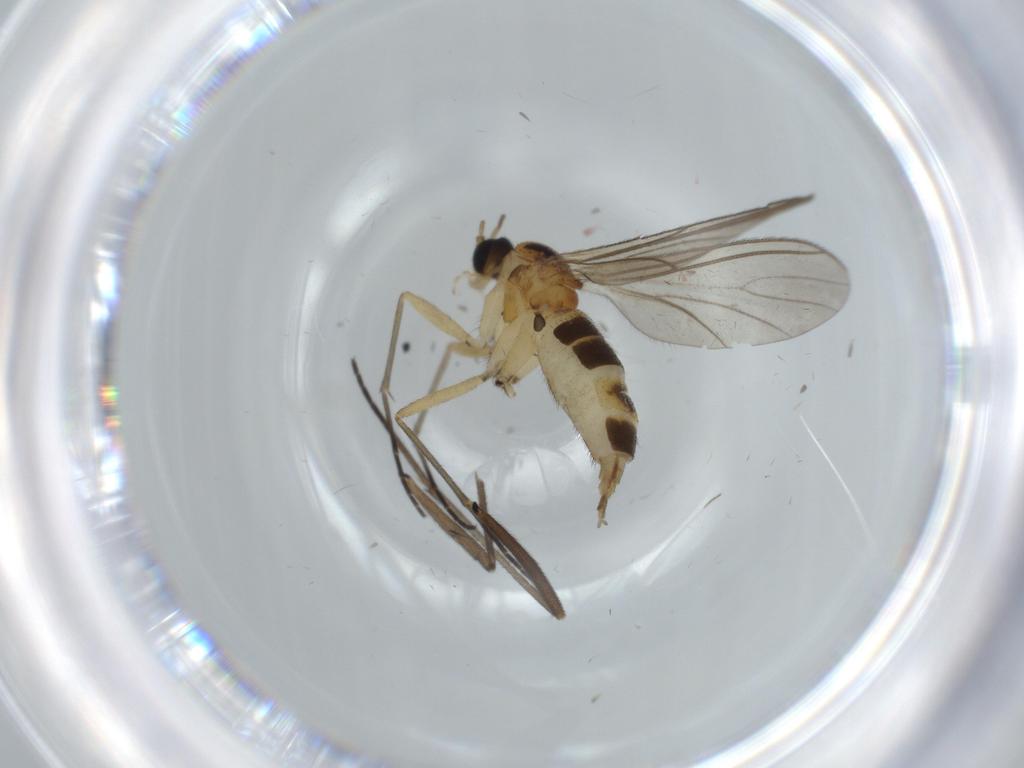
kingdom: Animalia
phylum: Arthropoda
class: Insecta
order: Diptera
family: Sciaridae
